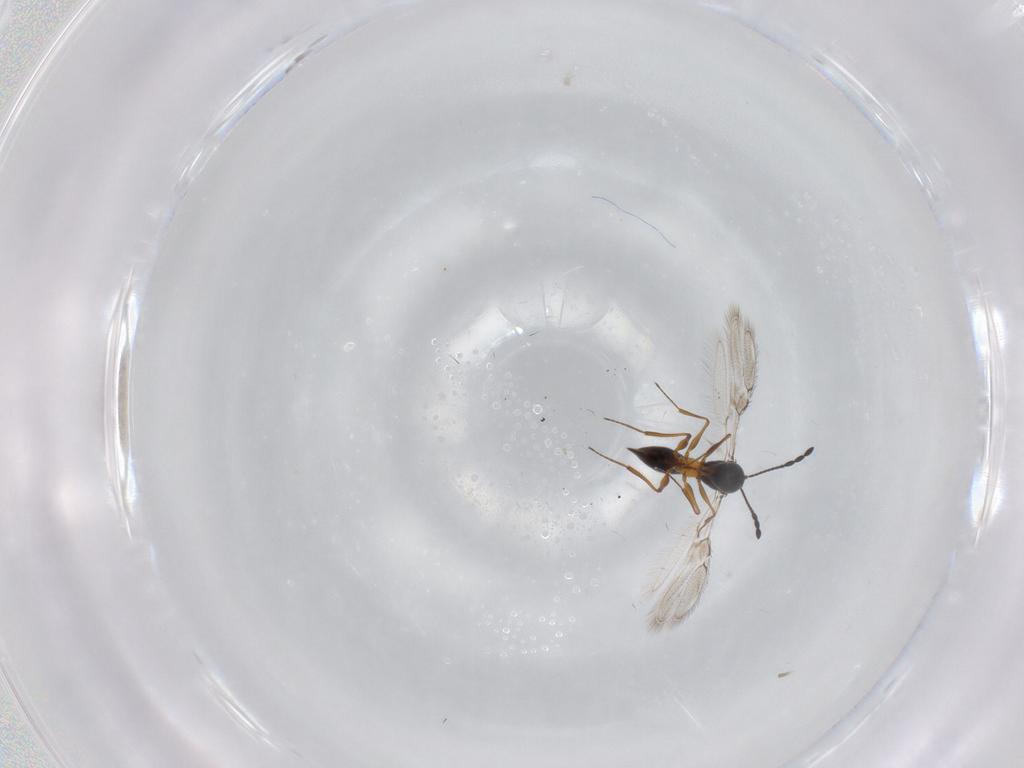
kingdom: Animalia
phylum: Arthropoda
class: Insecta
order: Hymenoptera
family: Figitidae
